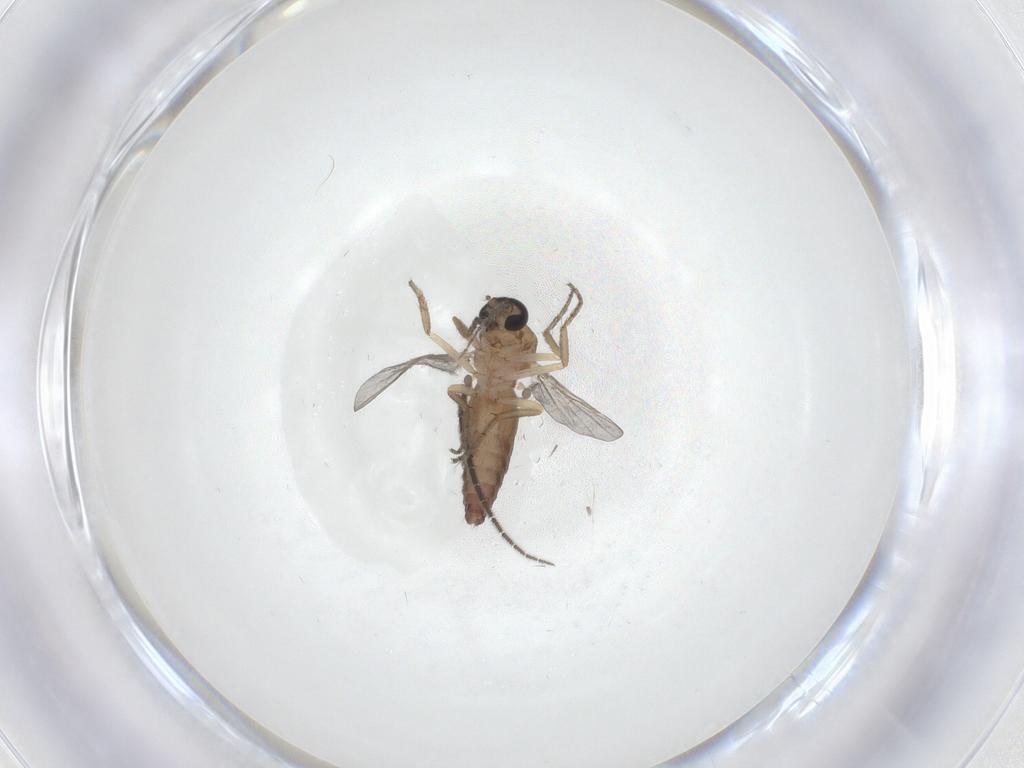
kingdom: Animalia
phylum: Arthropoda
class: Insecta
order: Diptera
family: Ceratopogonidae
